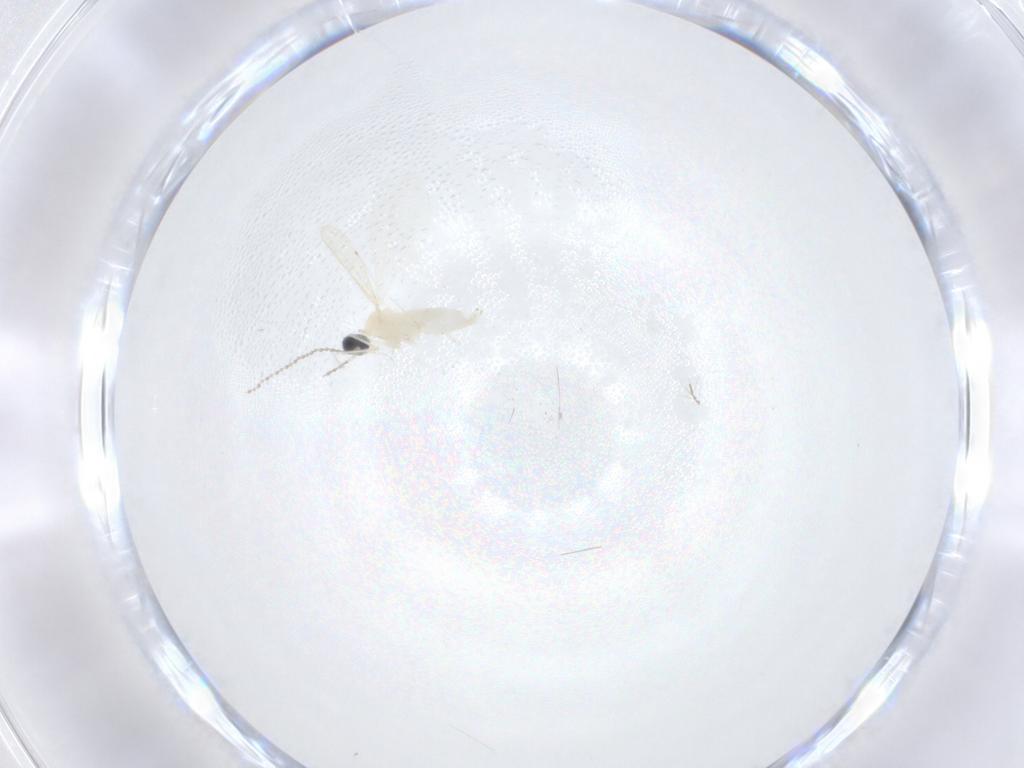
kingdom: Animalia
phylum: Arthropoda
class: Insecta
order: Diptera
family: Chironomidae
